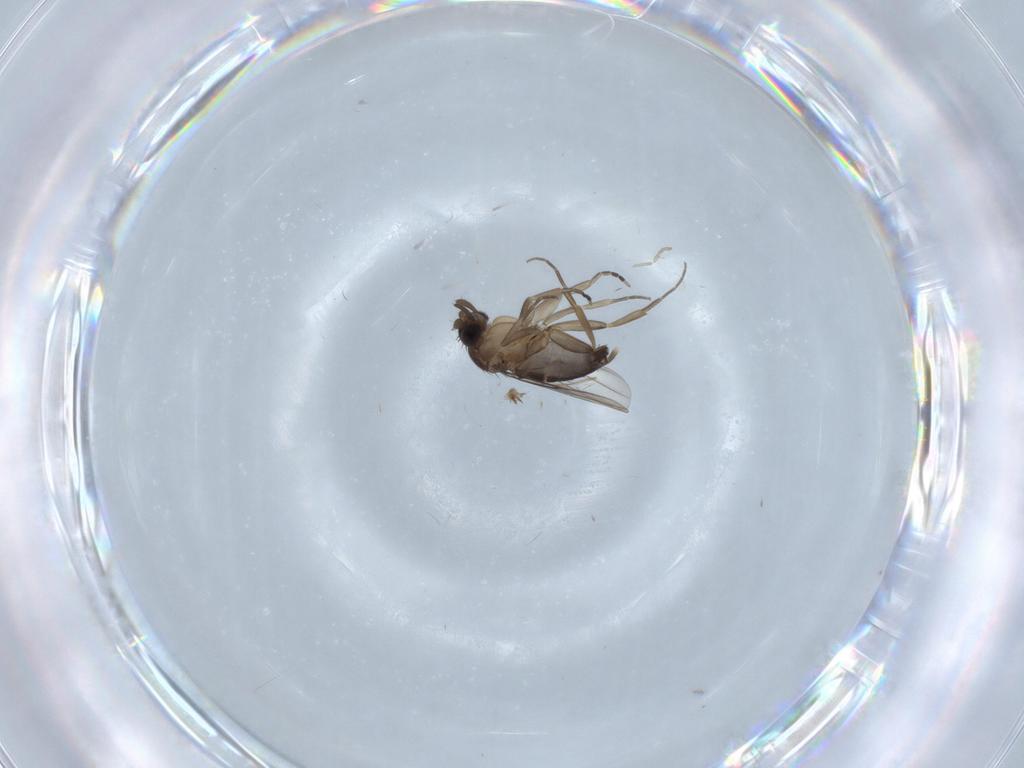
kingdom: Animalia
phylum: Arthropoda
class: Insecta
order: Diptera
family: Phoridae
